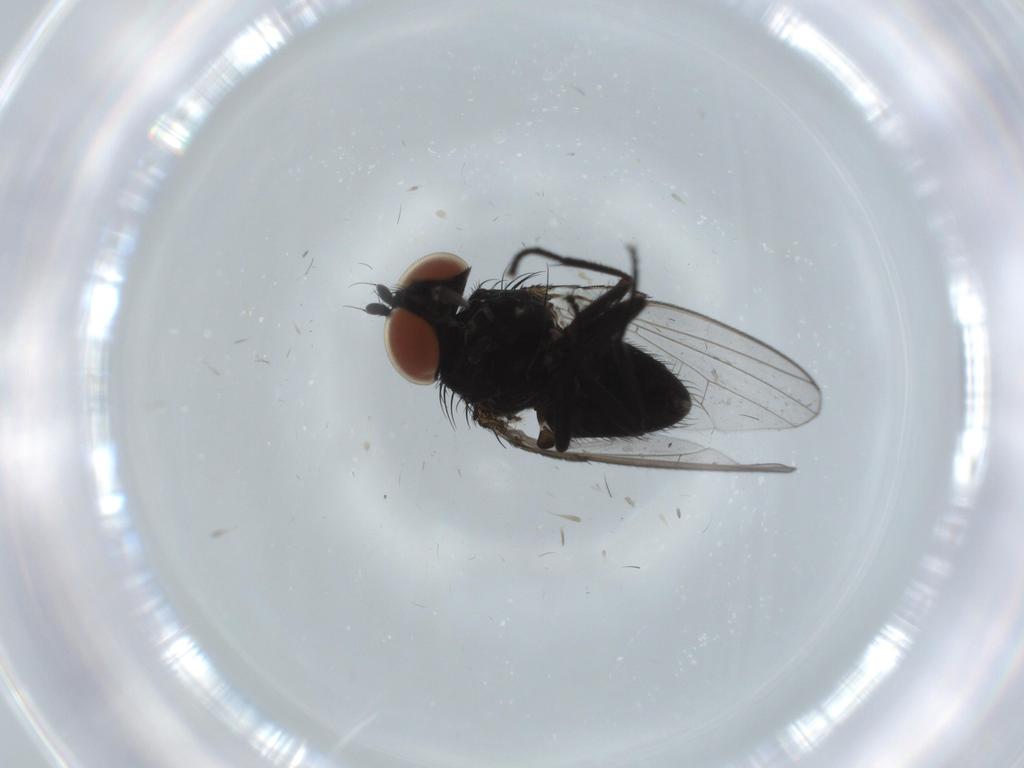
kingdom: Animalia
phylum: Arthropoda
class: Insecta
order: Diptera
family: Milichiidae
